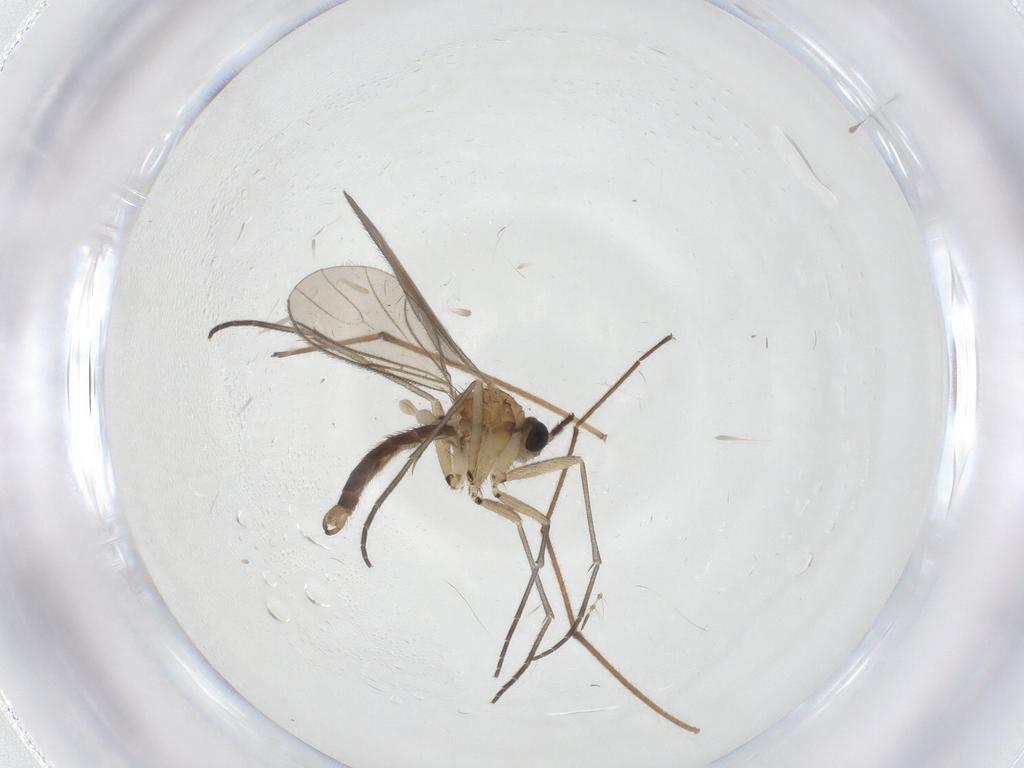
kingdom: Animalia
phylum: Arthropoda
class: Insecta
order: Diptera
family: Sciaridae
